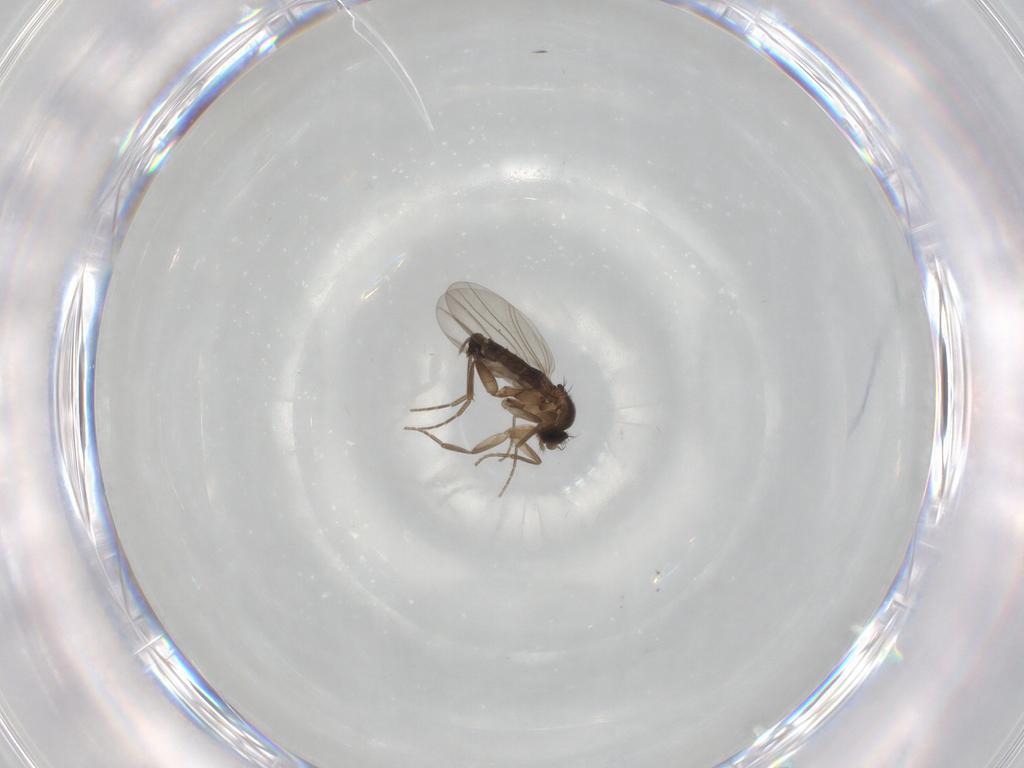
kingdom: Animalia
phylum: Arthropoda
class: Insecta
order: Diptera
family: Phoridae
